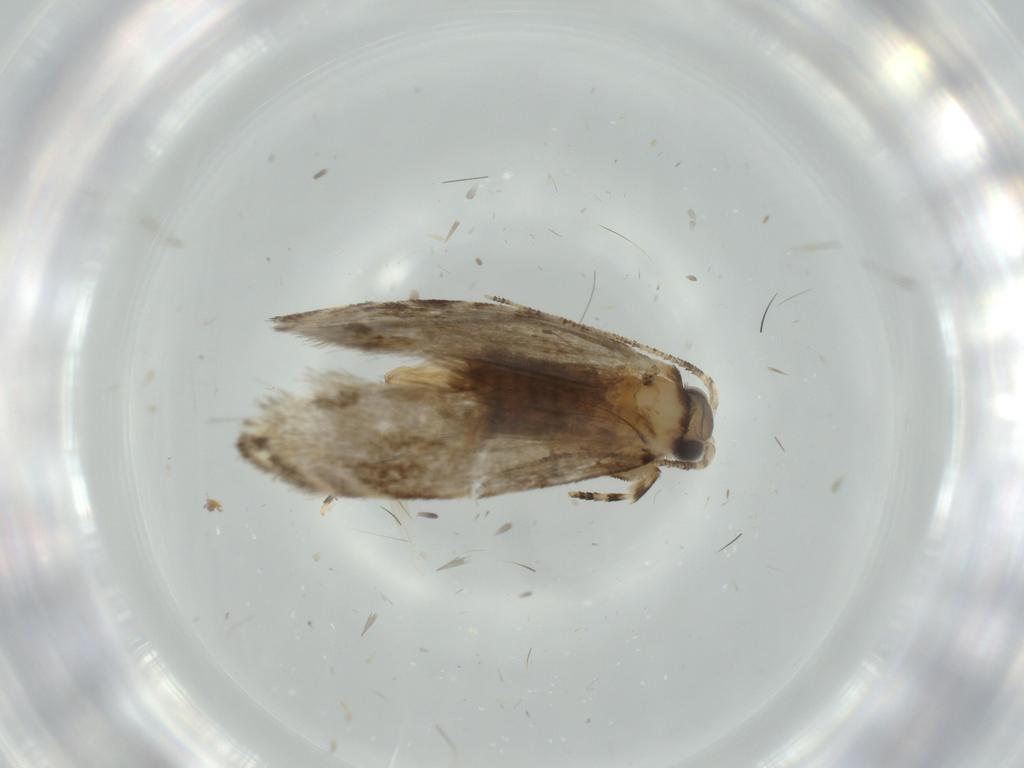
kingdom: Animalia
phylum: Arthropoda
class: Insecta
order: Lepidoptera
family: Tineidae
